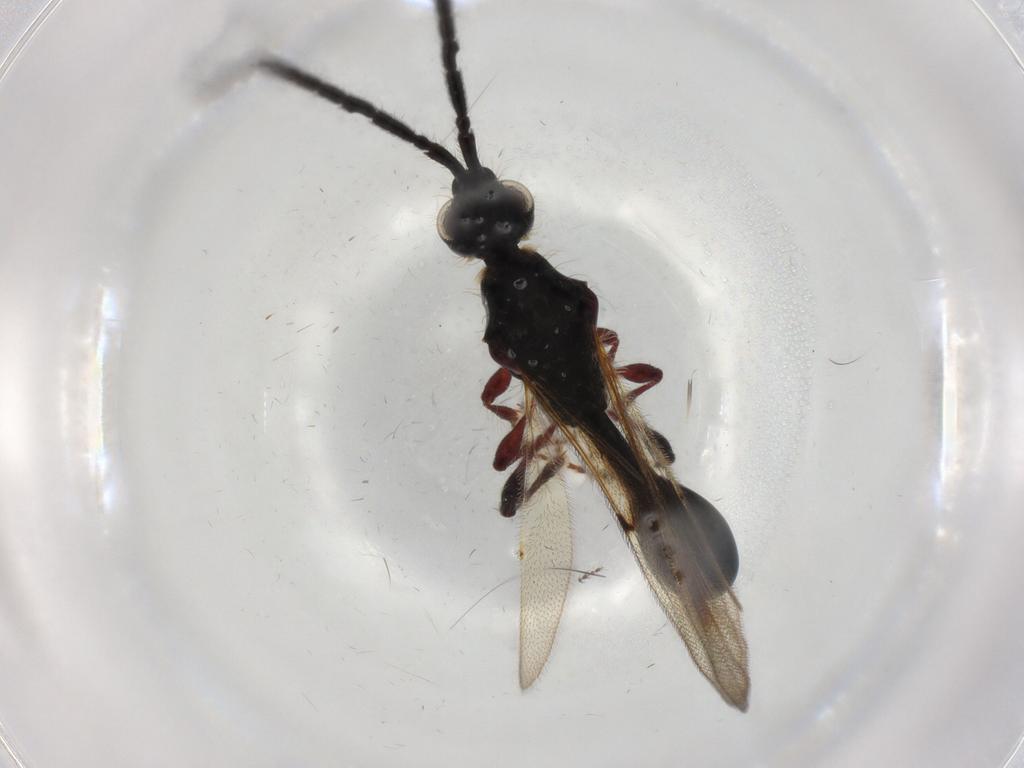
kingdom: Animalia
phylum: Arthropoda
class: Insecta
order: Hymenoptera
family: Diapriidae
